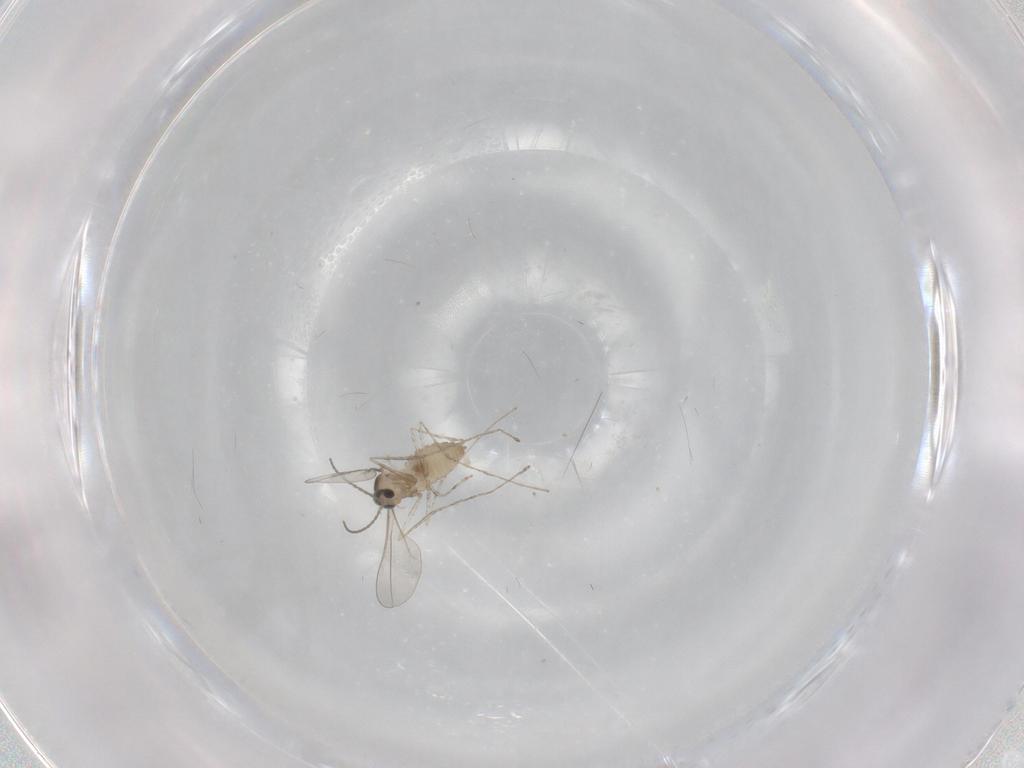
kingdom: Animalia
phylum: Arthropoda
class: Insecta
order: Diptera
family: Cecidomyiidae
